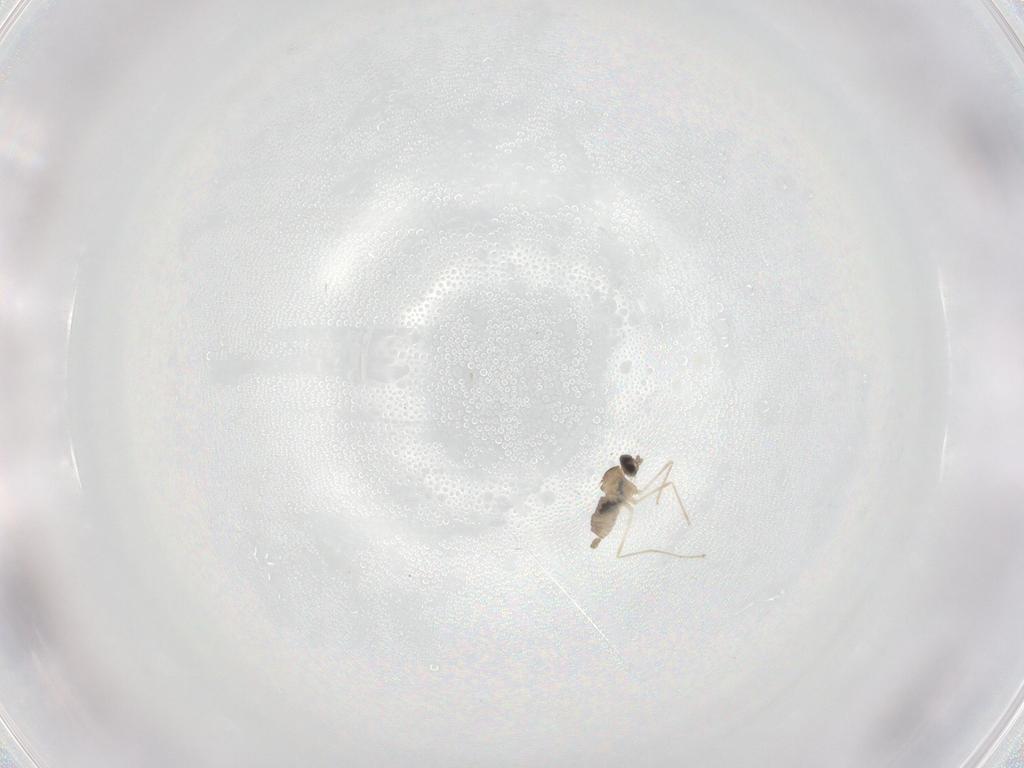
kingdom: Animalia
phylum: Arthropoda
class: Insecta
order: Diptera
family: Cecidomyiidae
